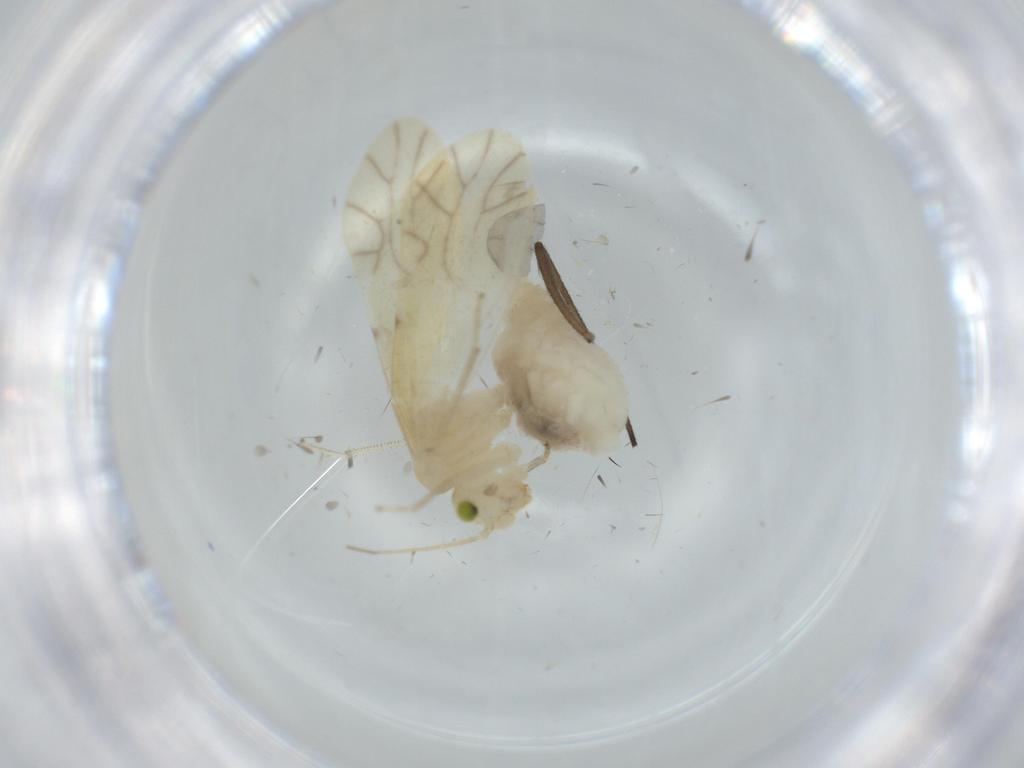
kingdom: Animalia
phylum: Arthropoda
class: Insecta
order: Psocodea
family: Caeciliusidae
